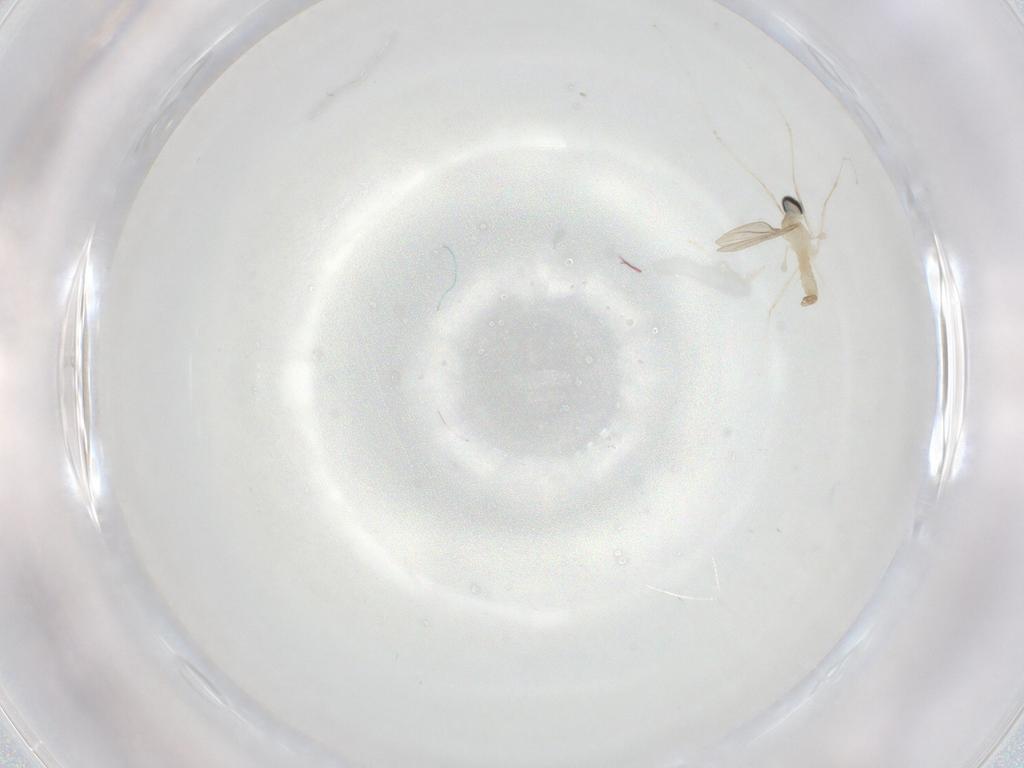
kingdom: Animalia
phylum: Arthropoda
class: Insecta
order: Diptera
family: Cecidomyiidae
